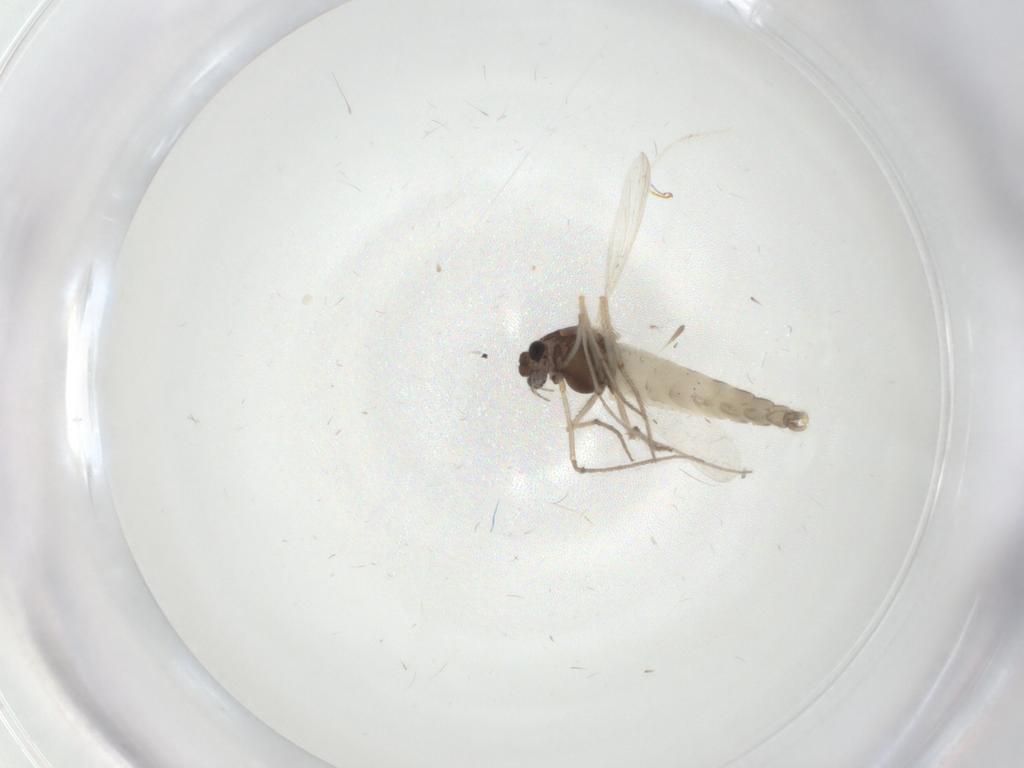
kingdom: Animalia
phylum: Arthropoda
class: Insecta
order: Diptera
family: Chironomidae
